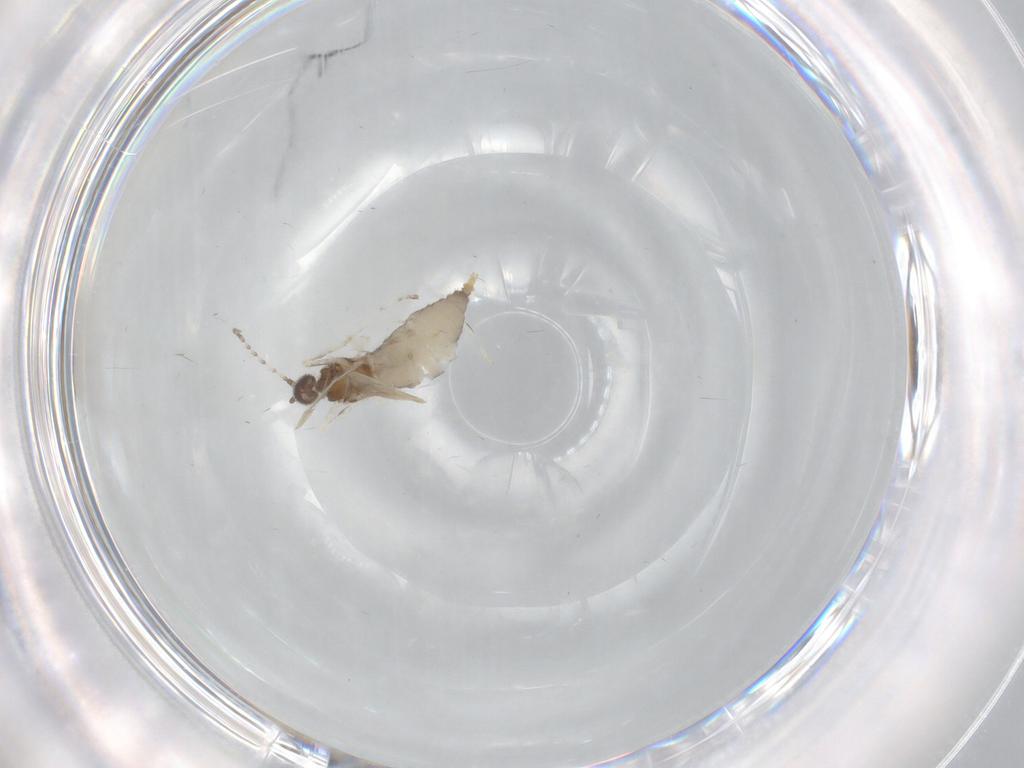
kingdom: Animalia
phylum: Arthropoda
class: Insecta
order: Diptera
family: Cecidomyiidae
